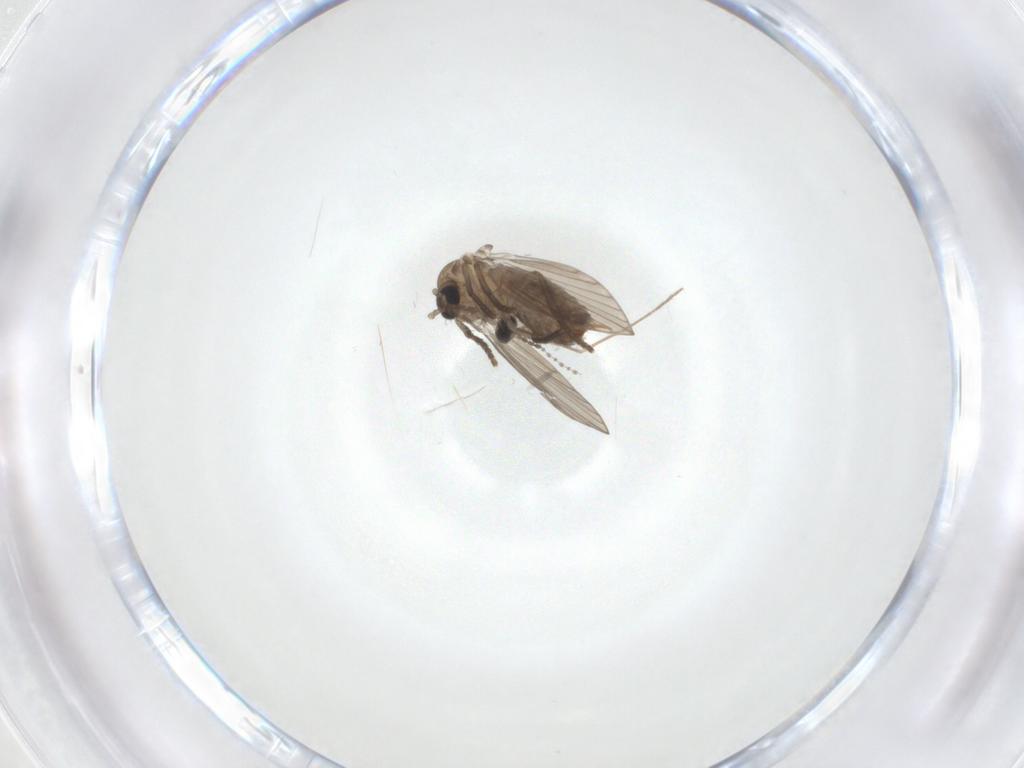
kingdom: Animalia
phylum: Arthropoda
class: Insecta
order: Diptera
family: Cecidomyiidae
